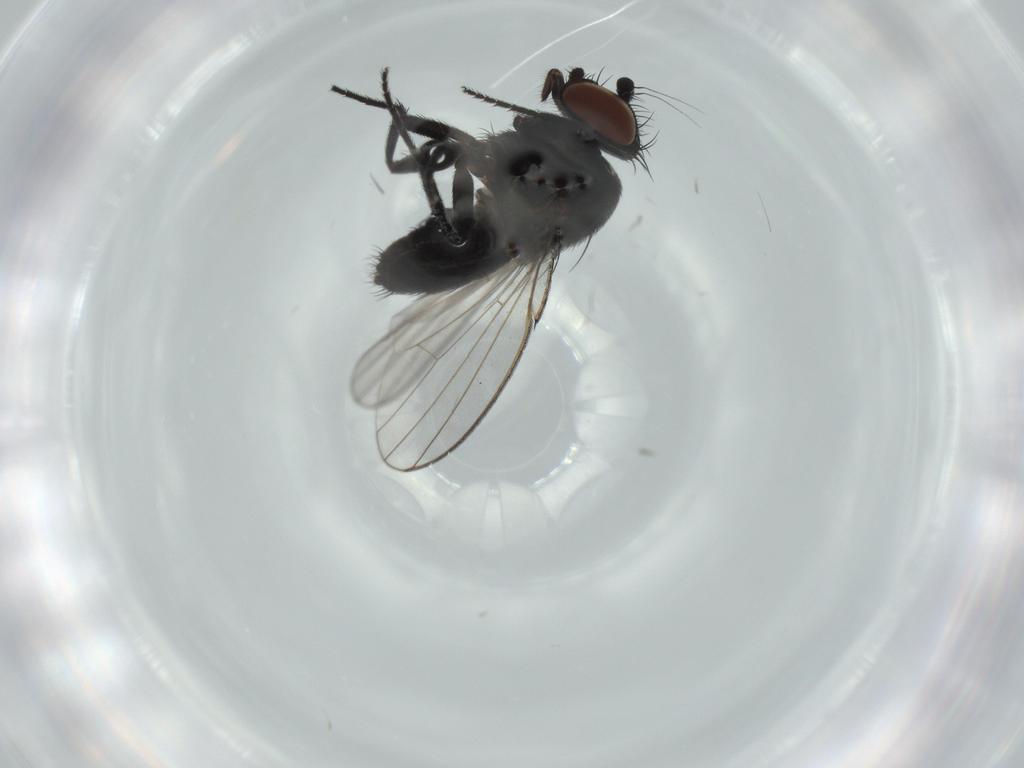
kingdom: Animalia
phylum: Arthropoda
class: Insecta
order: Diptera
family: Milichiidae
